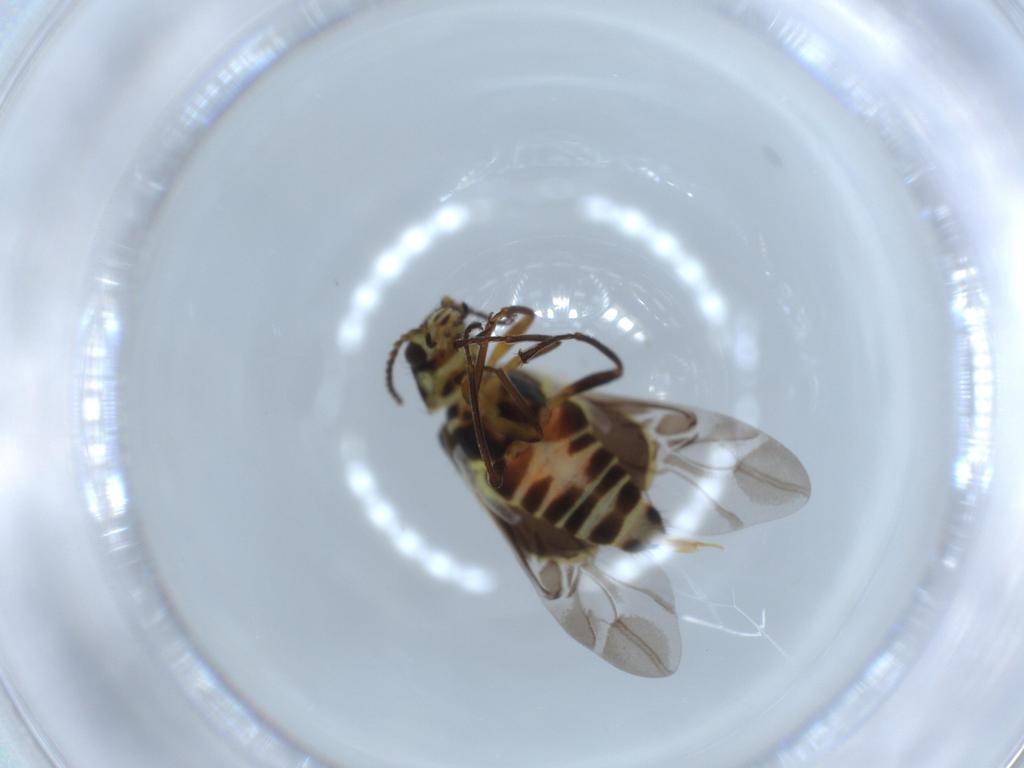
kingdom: Animalia
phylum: Arthropoda
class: Insecta
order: Coleoptera
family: Melyridae
